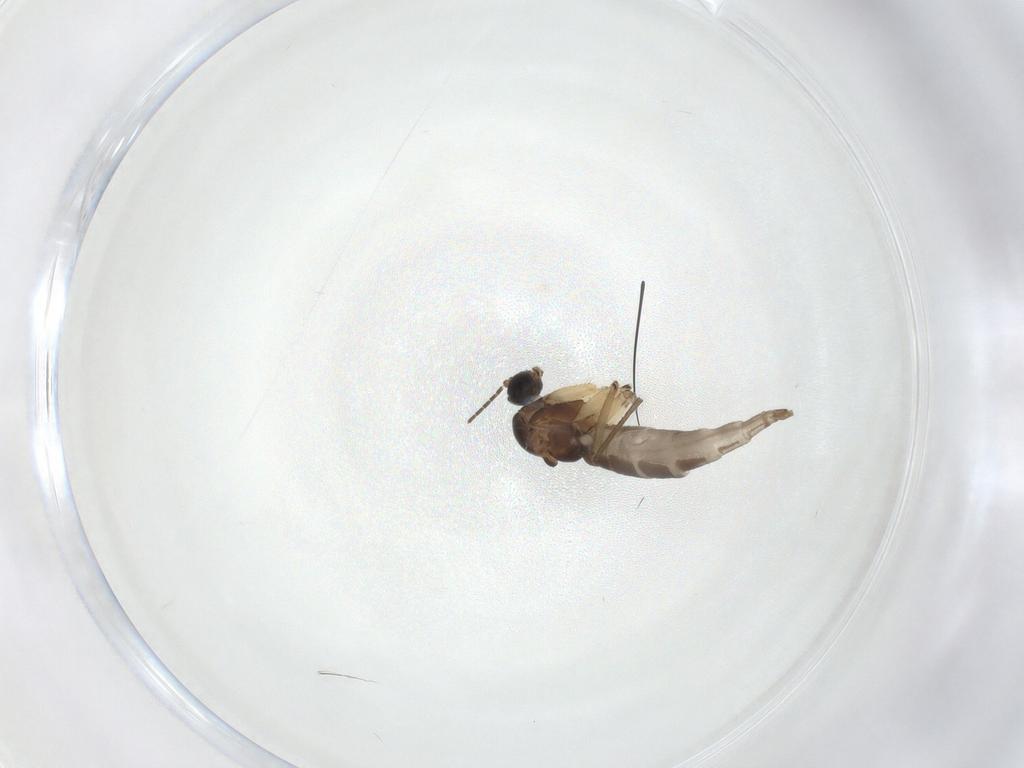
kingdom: Animalia
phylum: Arthropoda
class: Insecta
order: Diptera
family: Sciaridae
